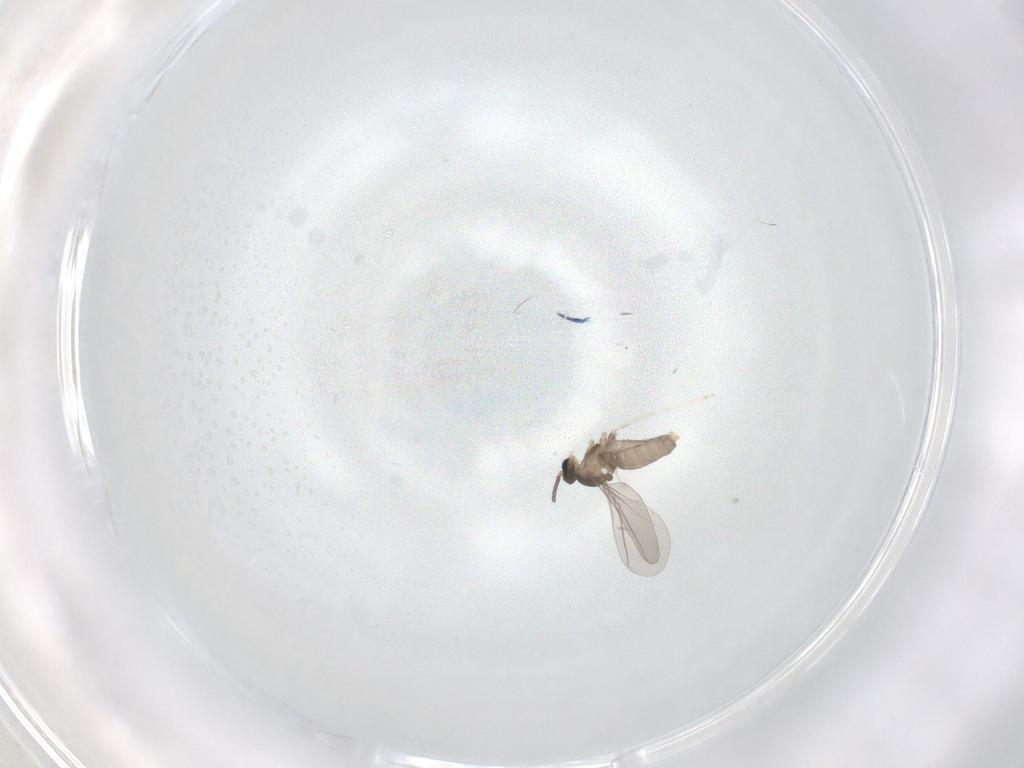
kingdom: Animalia
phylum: Arthropoda
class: Insecta
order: Diptera
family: Cecidomyiidae
